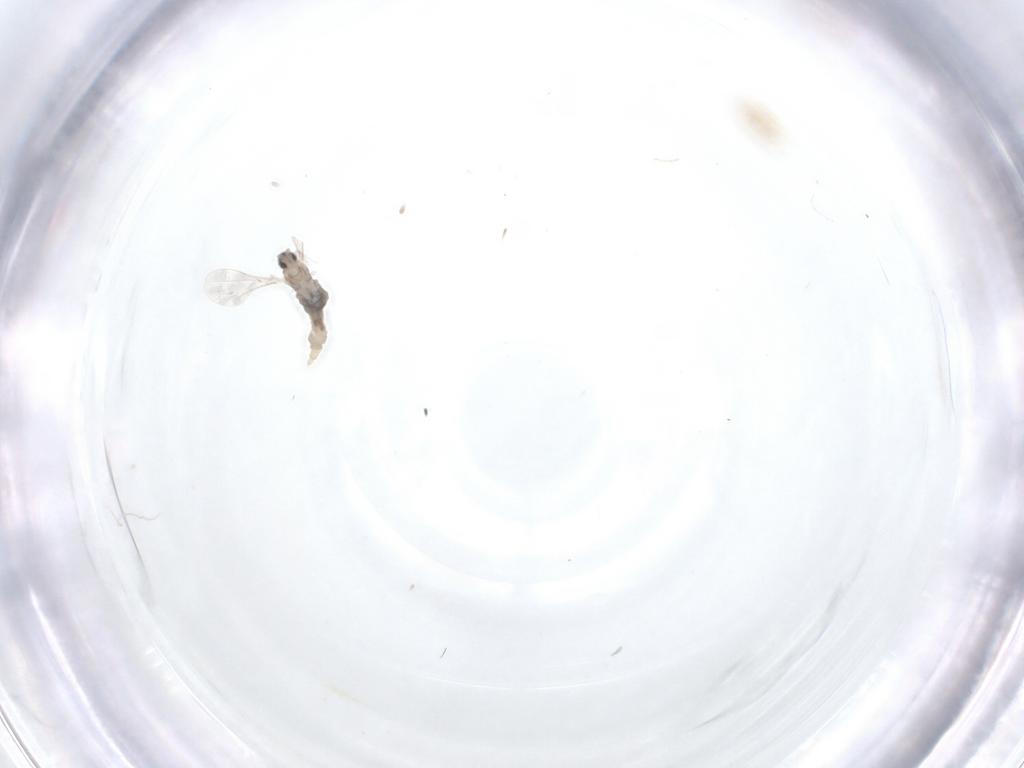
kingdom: Animalia
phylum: Arthropoda
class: Insecta
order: Diptera
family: Cecidomyiidae
